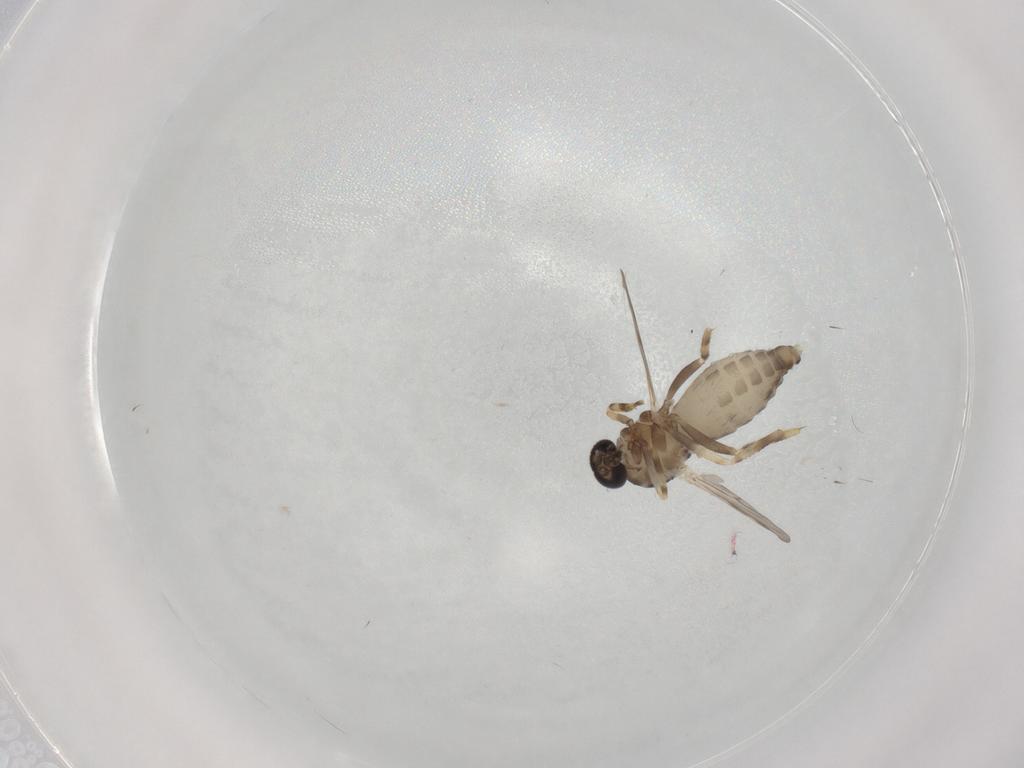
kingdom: Animalia
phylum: Arthropoda
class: Insecta
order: Diptera
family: Ceratopogonidae
